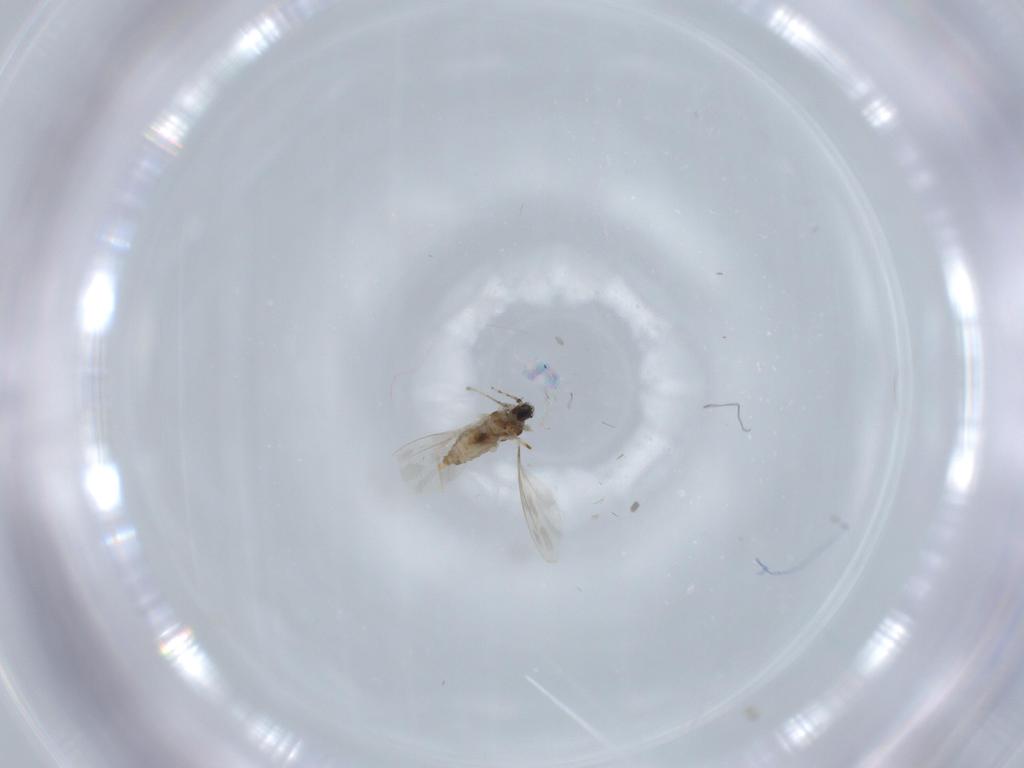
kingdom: Animalia
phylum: Arthropoda
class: Insecta
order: Diptera
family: Cecidomyiidae
